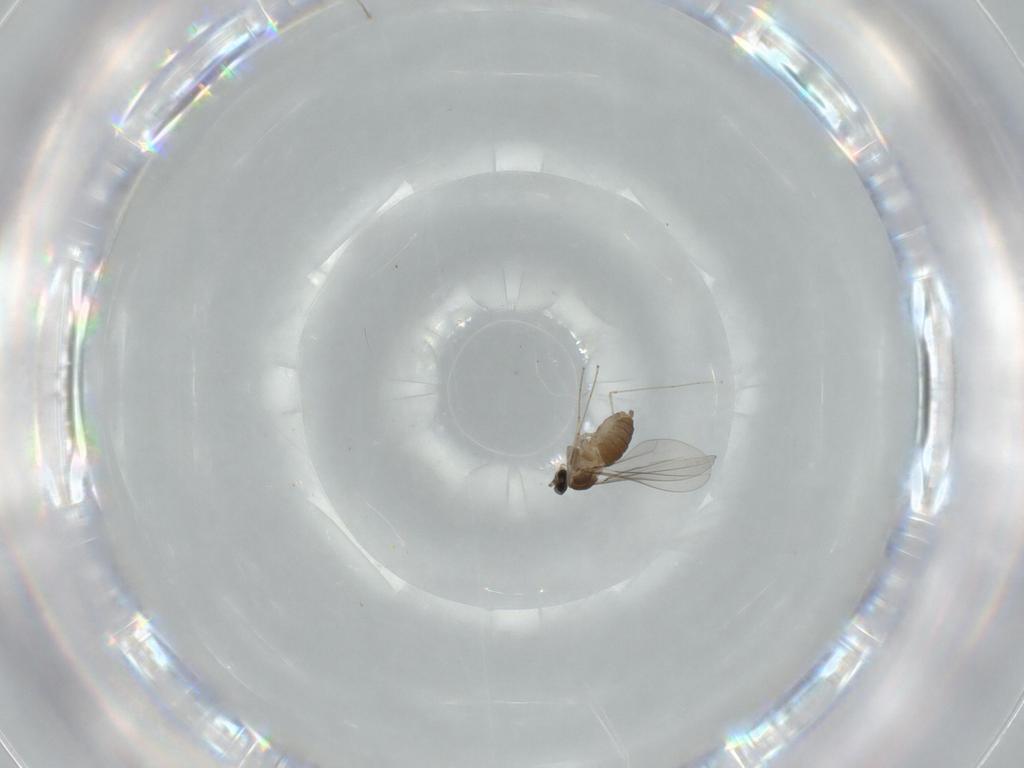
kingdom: Animalia
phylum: Arthropoda
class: Insecta
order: Diptera
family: Cecidomyiidae
